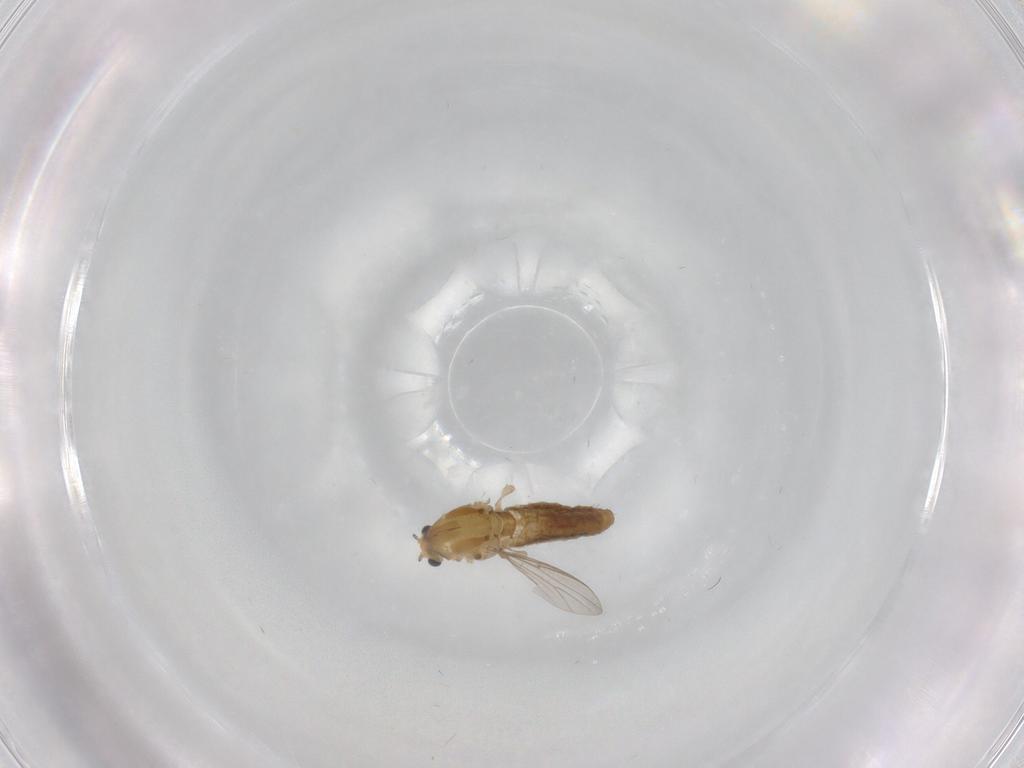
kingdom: Animalia
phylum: Arthropoda
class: Insecta
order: Diptera
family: Chironomidae
